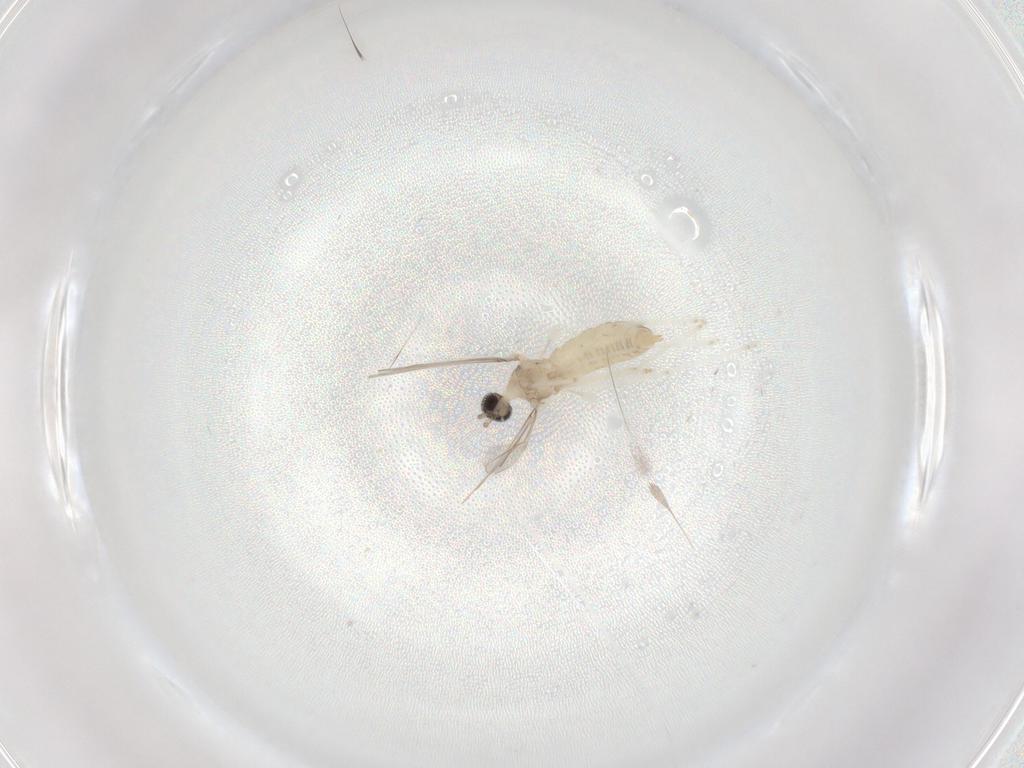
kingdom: Animalia
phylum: Arthropoda
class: Insecta
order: Diptera
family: Cecidomyiidae
